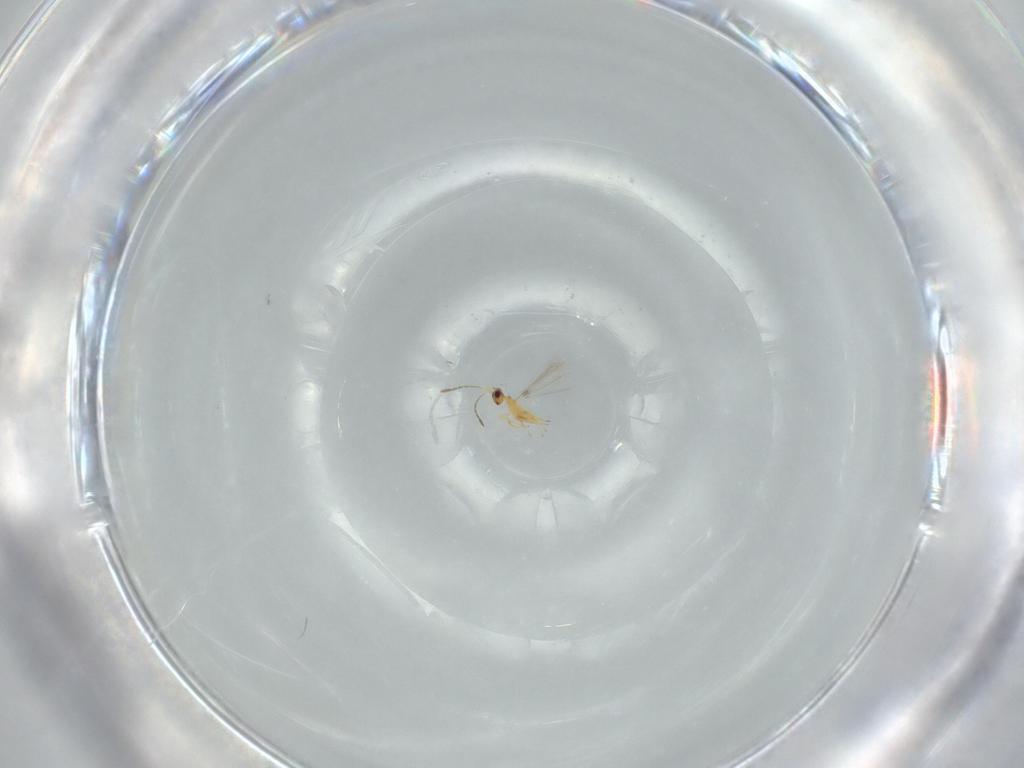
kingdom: Animalia
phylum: Arthropoda
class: Insecta
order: Hymenoptera
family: Mymaridae
